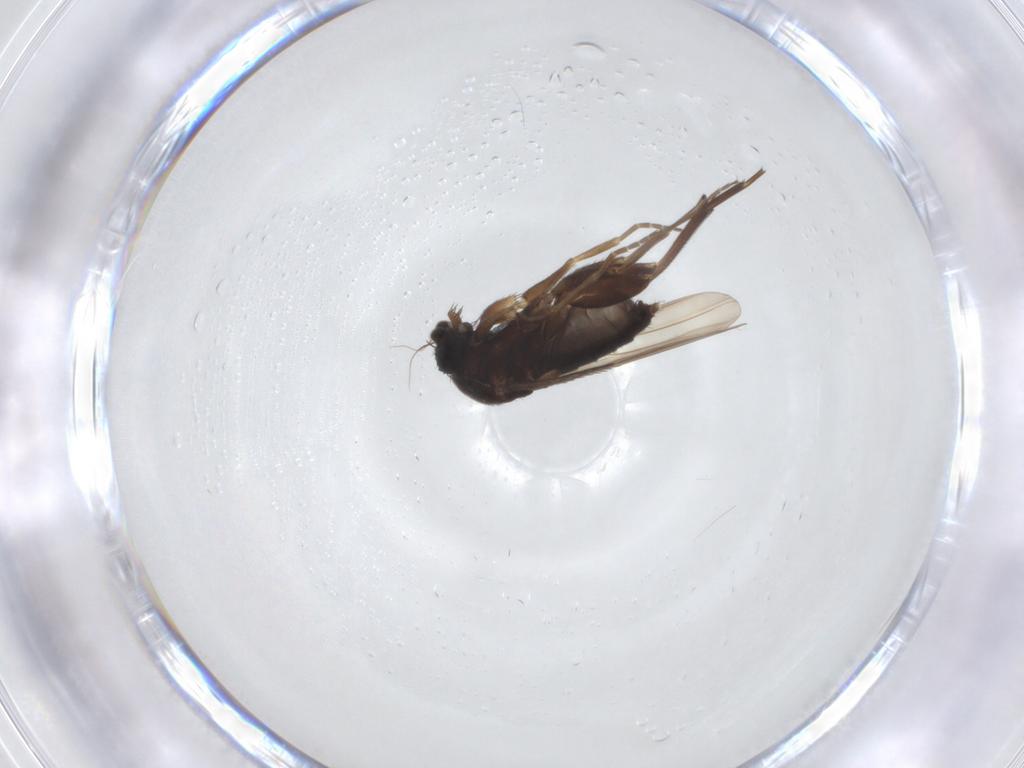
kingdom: Animalia
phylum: Arthropoda
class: Insecta
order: Diptera
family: Phoridae
